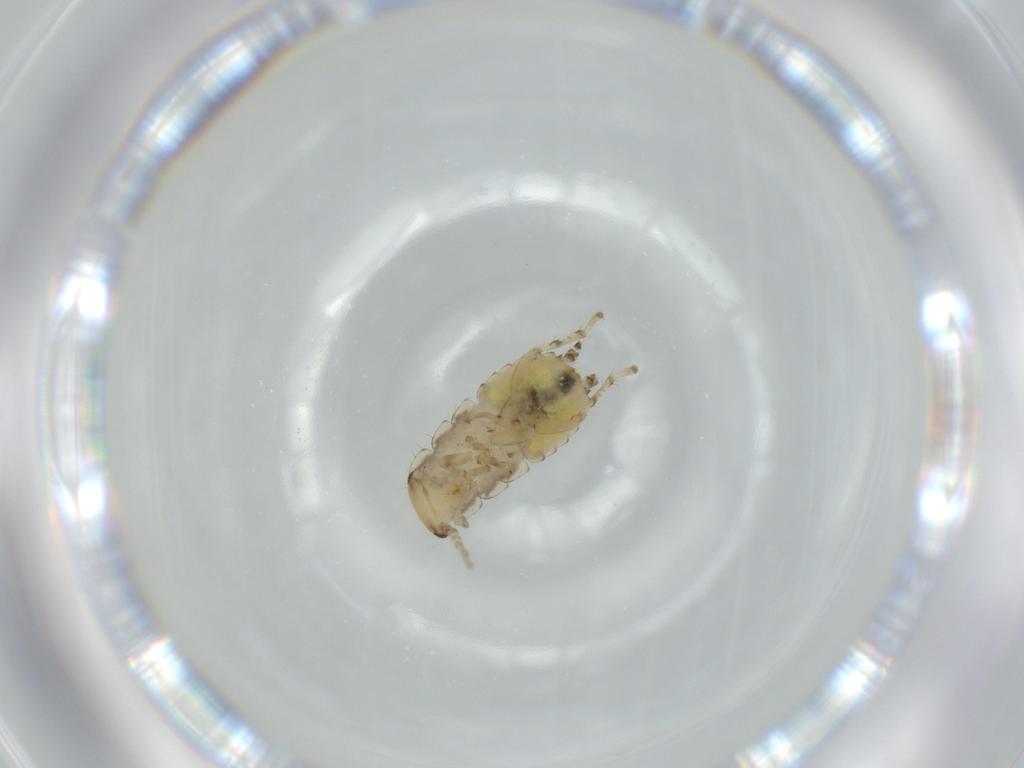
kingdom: Animalia
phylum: Arthropoda
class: Insecta
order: Blattodea
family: Ectobiidae
